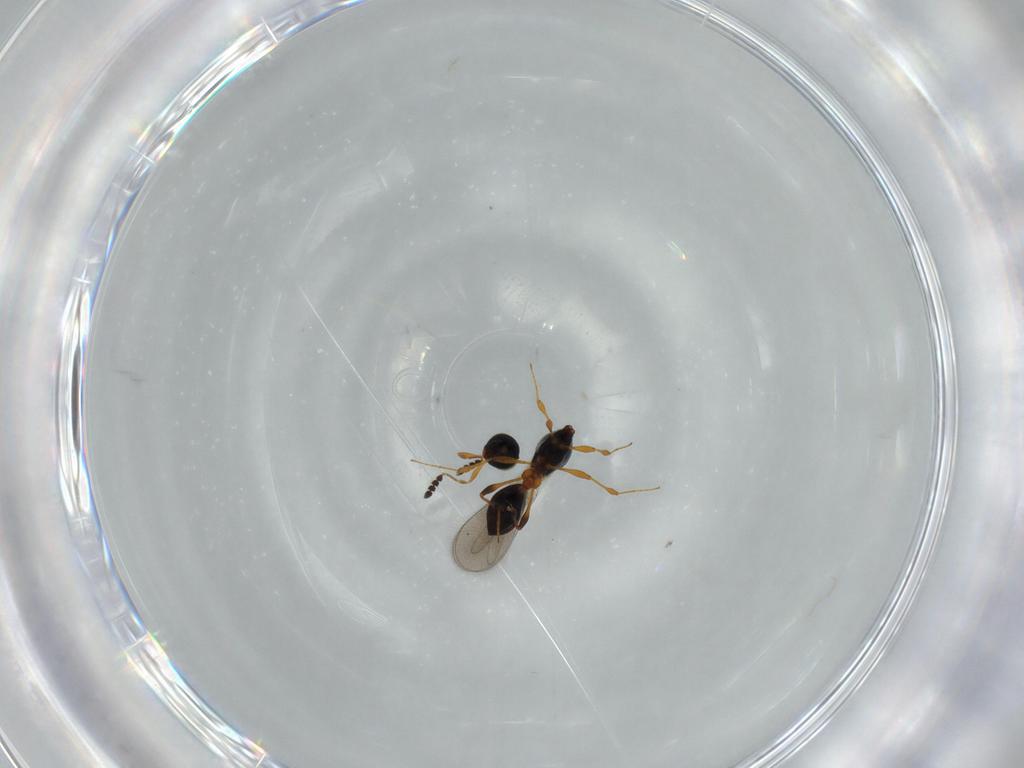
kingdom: Animalia
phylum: Arthropoda
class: Insecta
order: Hymenoptera
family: Platygastridae
